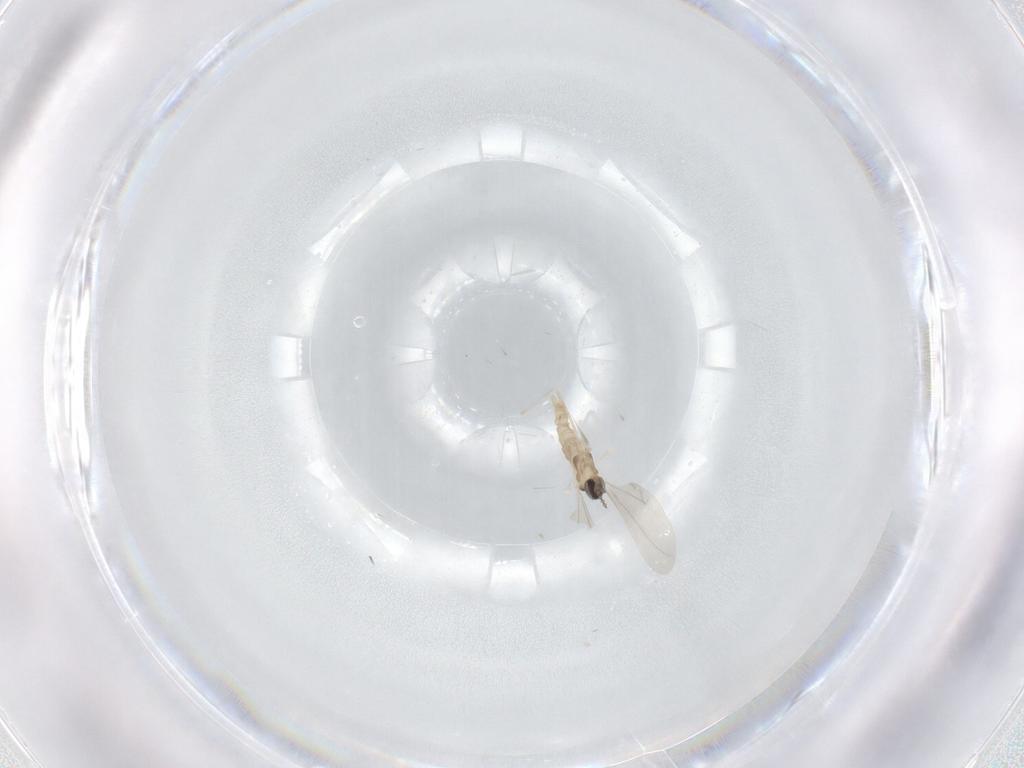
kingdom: Animalia
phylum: Arthropoda
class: Insecta
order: Diptera
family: Cecidomyiidae
